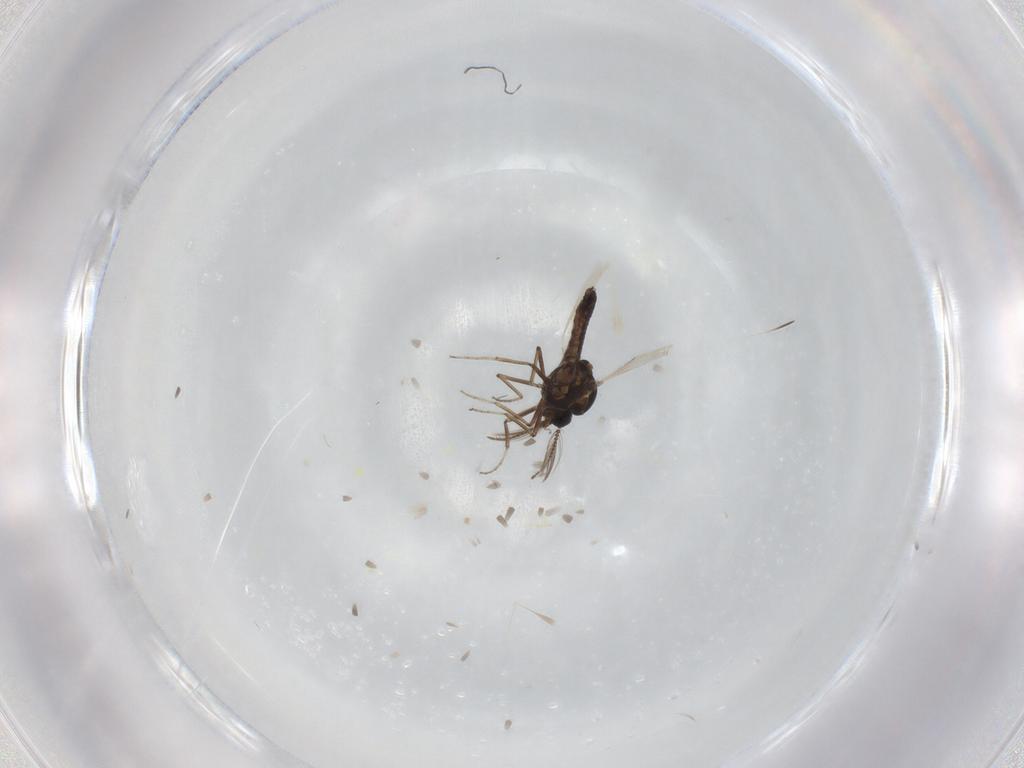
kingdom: Animalia
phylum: Arthropoda
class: Insecta
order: Diptera
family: Ceratopogonidae
